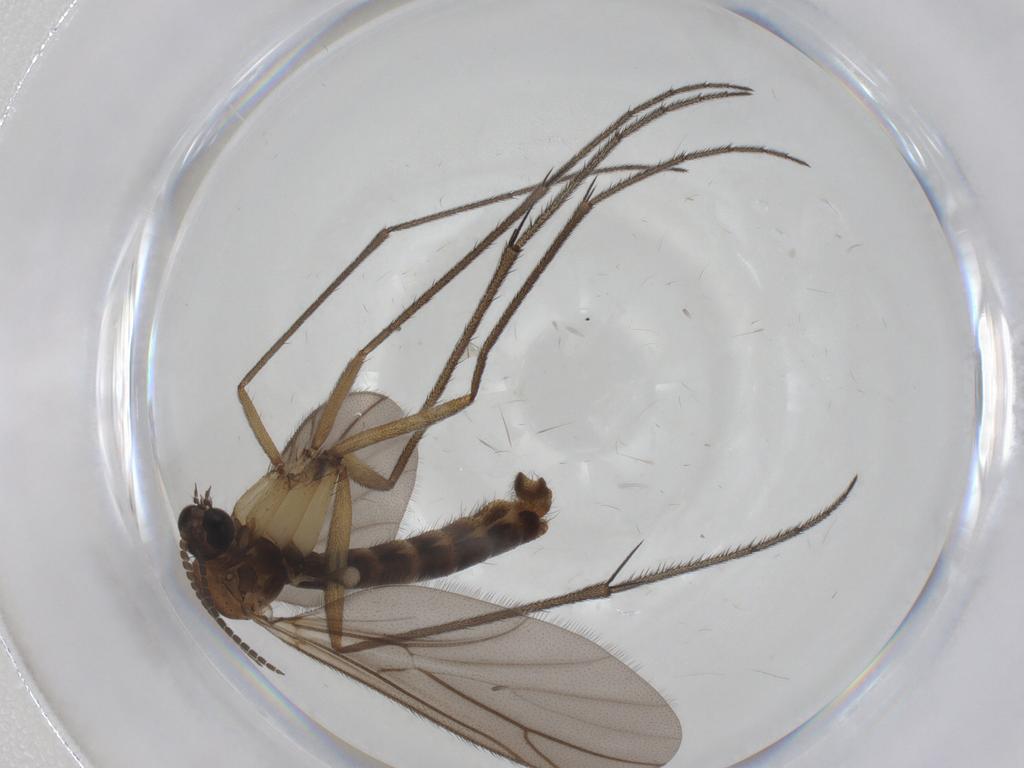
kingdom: Animalia
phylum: Arthropoda
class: Insecta
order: Diptera
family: Ditomyiidae
